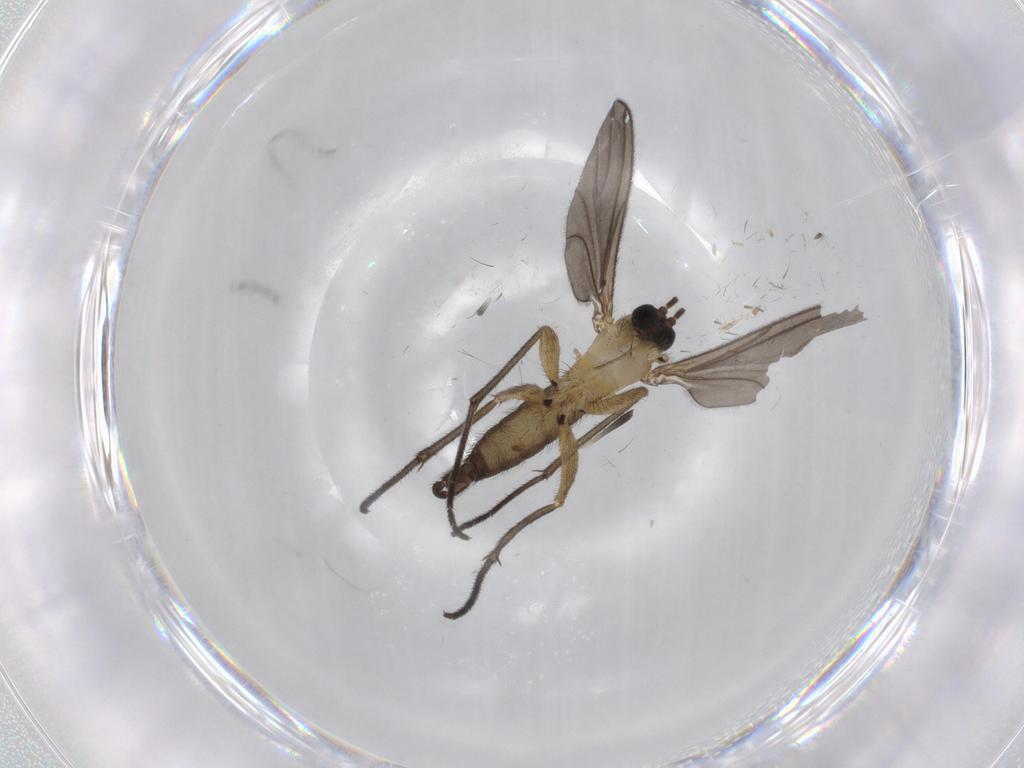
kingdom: Animalia
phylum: Arthropoda
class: Insecta
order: Diptera
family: Sciaridae
